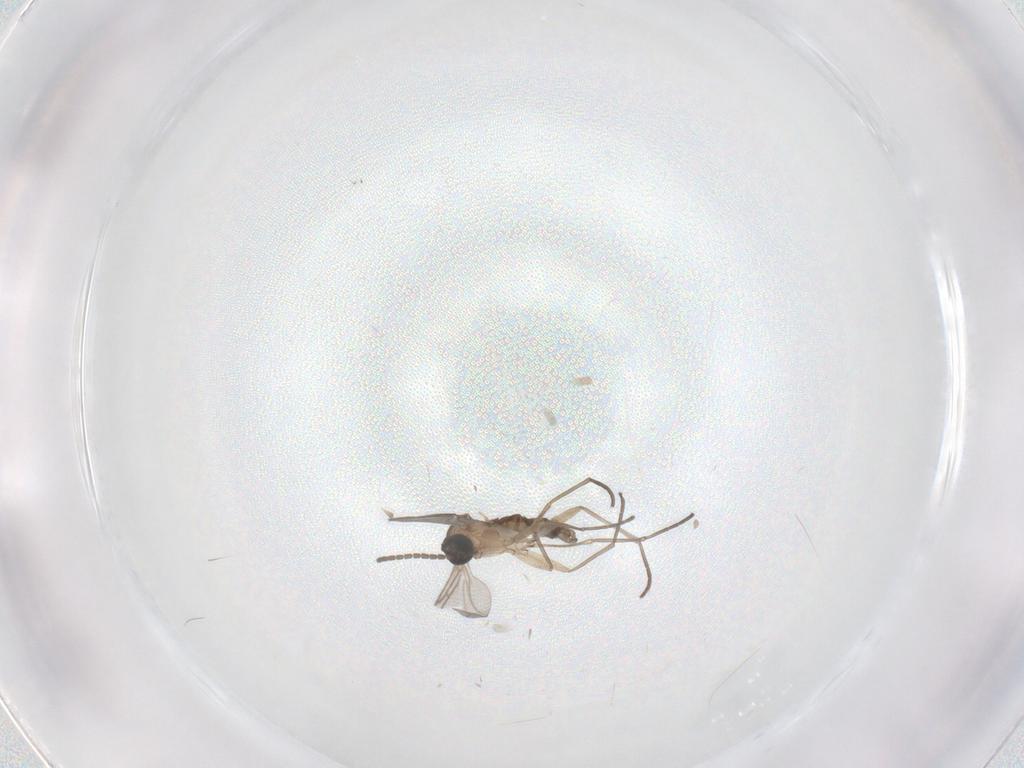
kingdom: Animalia
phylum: Arthropoda
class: Insecta
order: Diptera
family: Sciaridae
